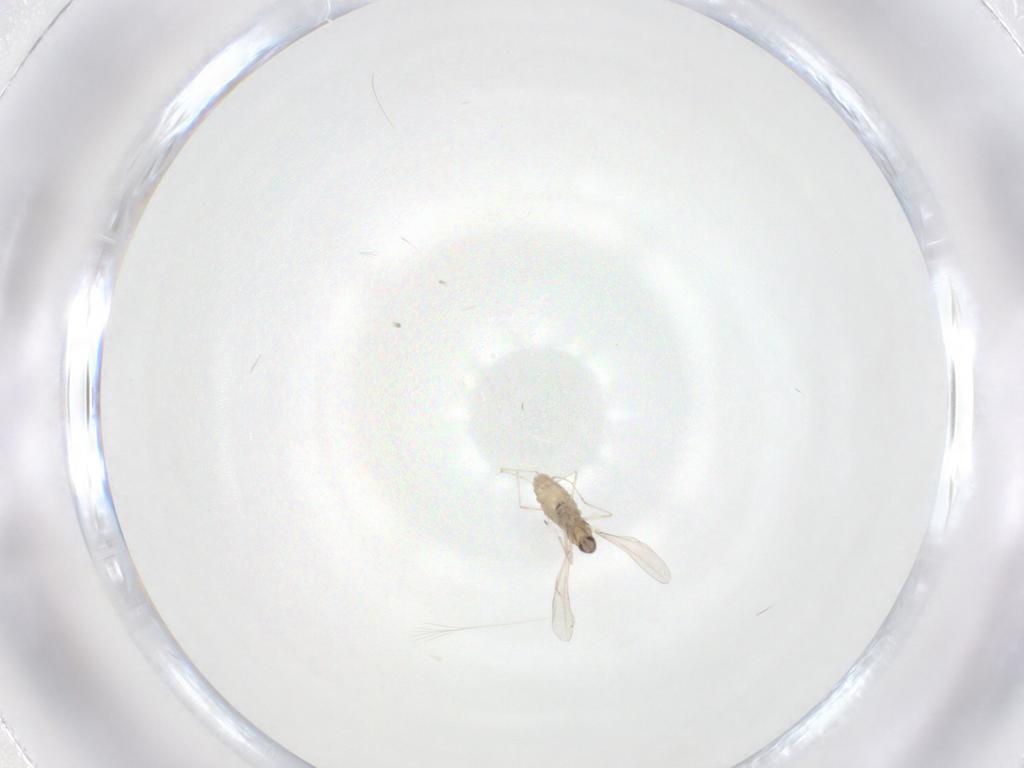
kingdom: Animalia
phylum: Arthropoda
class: Insecta
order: Diptera
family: Cecidomyiidae
